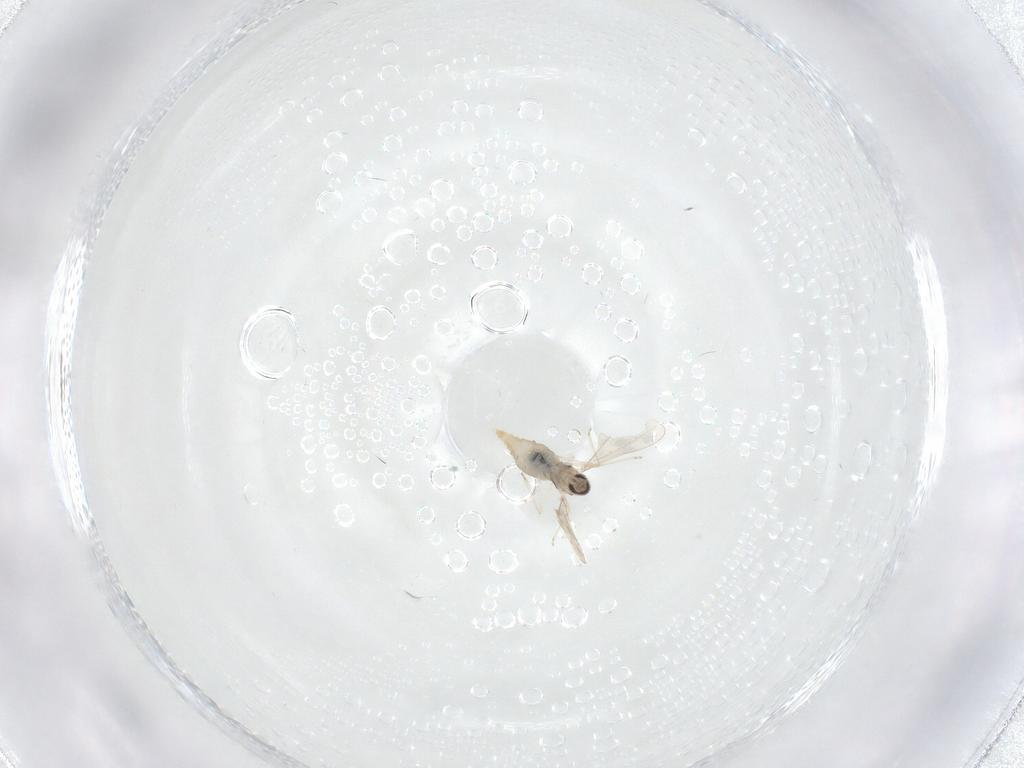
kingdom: Animalia
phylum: Arthropoda
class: Insecta
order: Diptera
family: Cecidomyiidae
